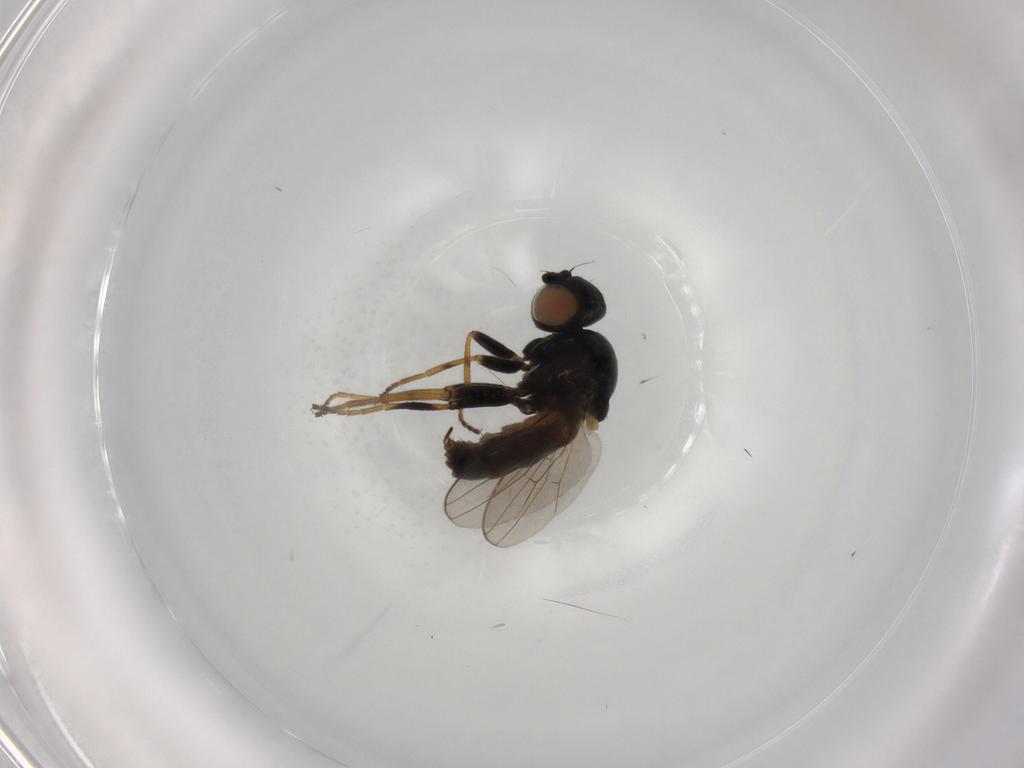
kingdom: Animalia
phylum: Arthropoda
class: Insecta
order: Diptera
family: Chloropidae
